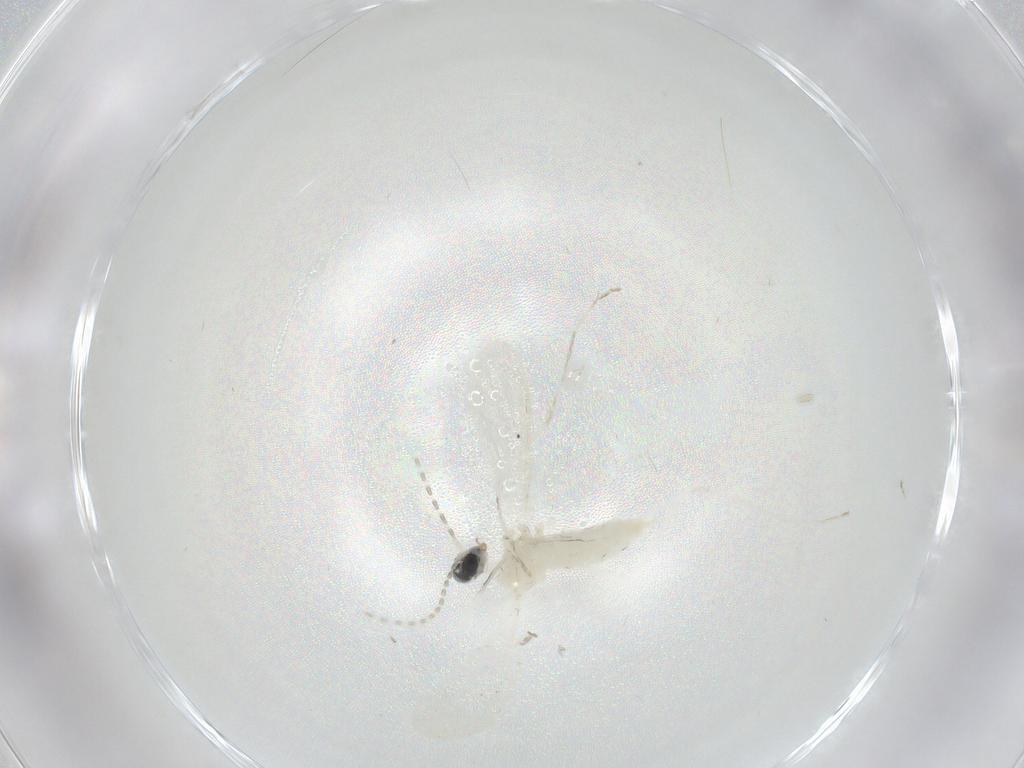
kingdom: Animalia
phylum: Arthropoda
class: Insecta
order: Diptera
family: Cecidomyiidae
